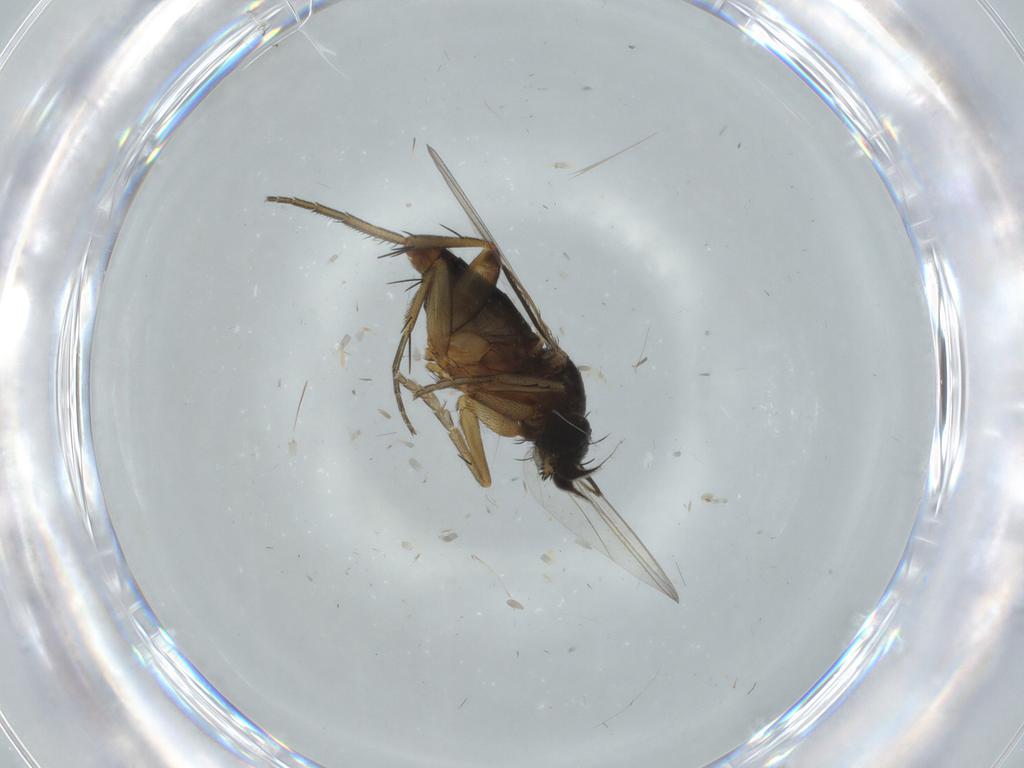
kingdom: Animalia
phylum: Arthropoda
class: Insecta
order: Diptera
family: Phoridae
